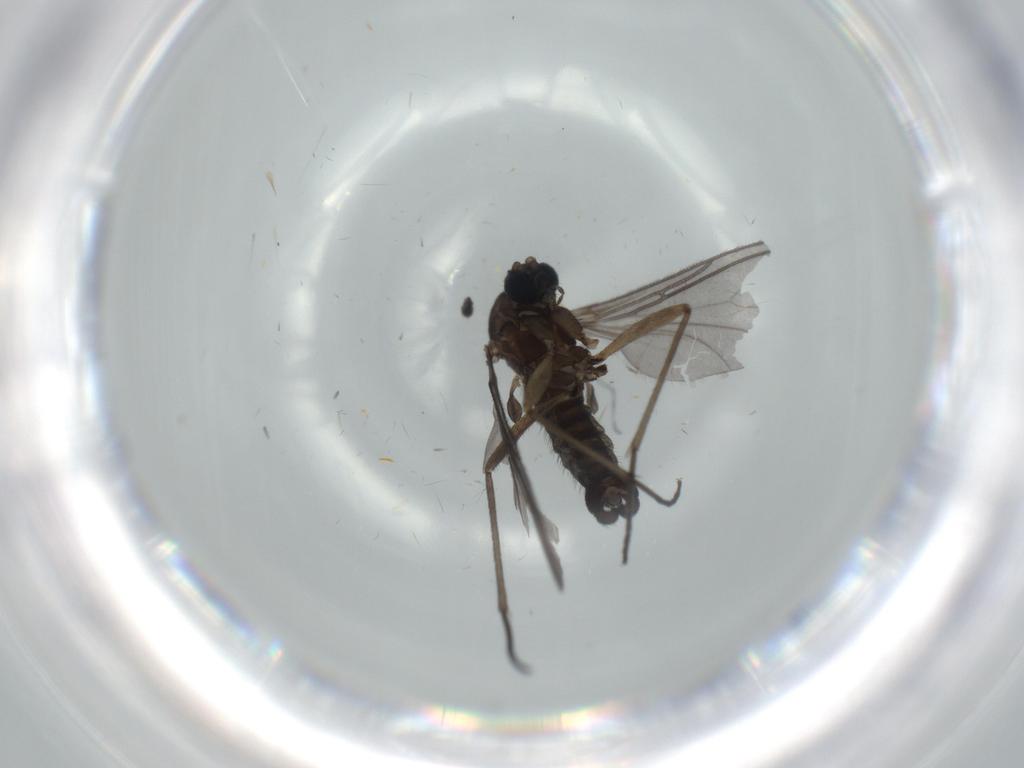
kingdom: Animalia
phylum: Arthropoda
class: Insecta
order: Diptera
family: Sciaridae
